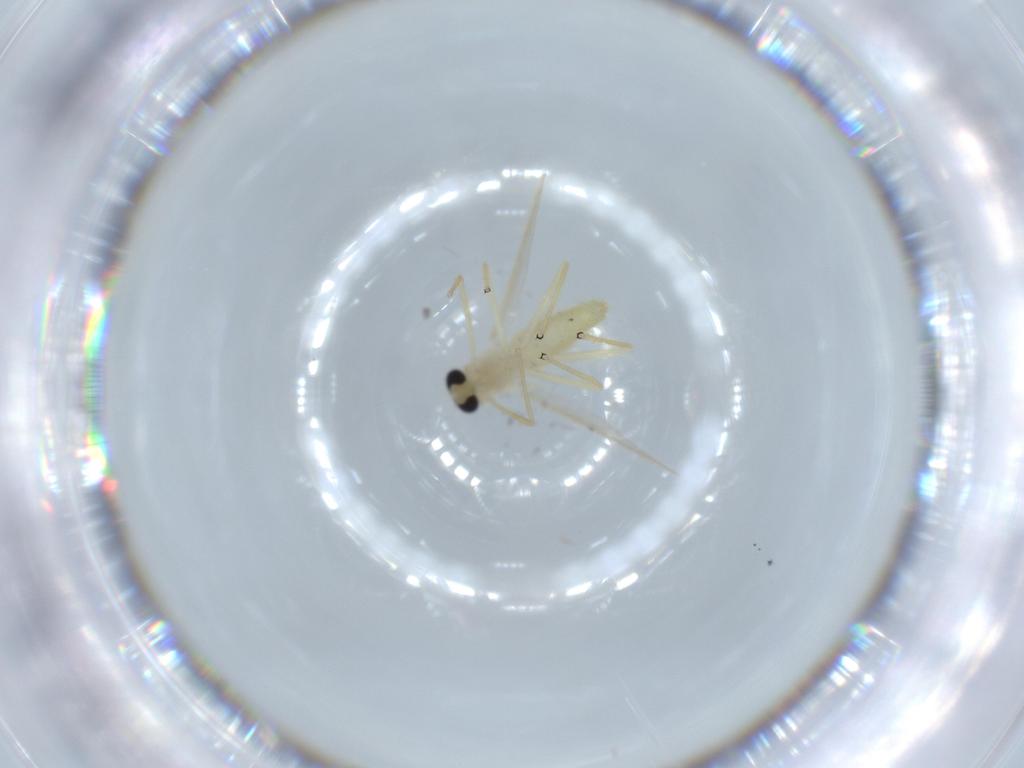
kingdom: Animalia
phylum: Arthropoda
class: Insecta
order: Diptera
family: Chironomidae
